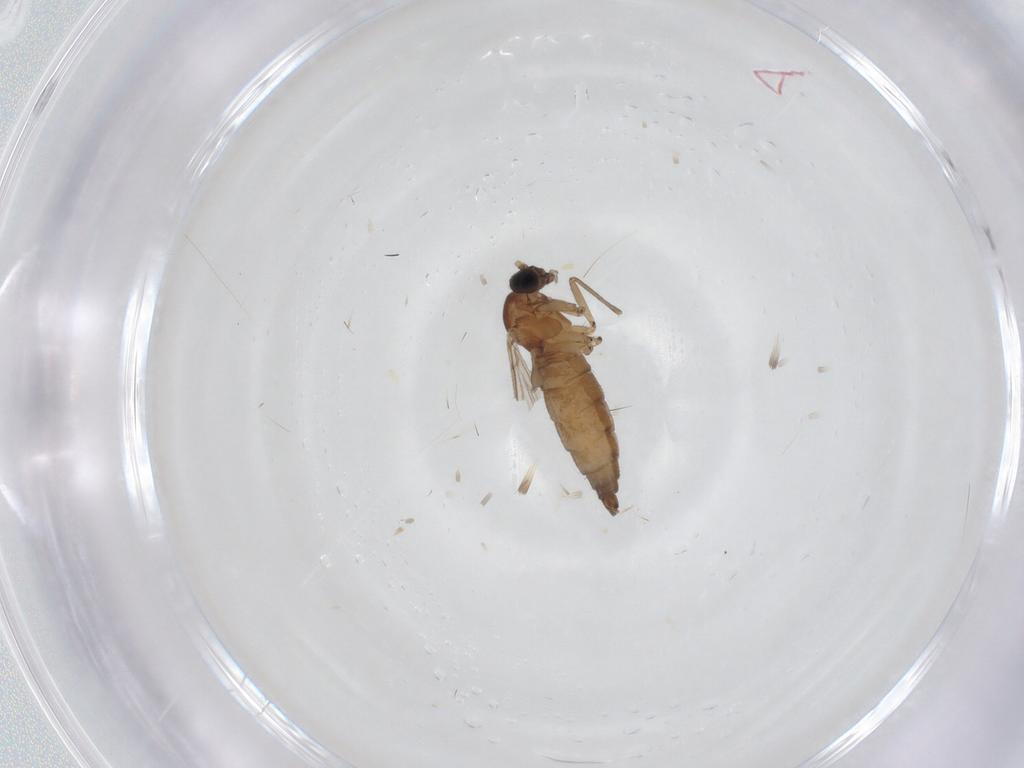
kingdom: Animalia
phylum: Arthropoda
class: Insecta
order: Diptera
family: Sciaridae
